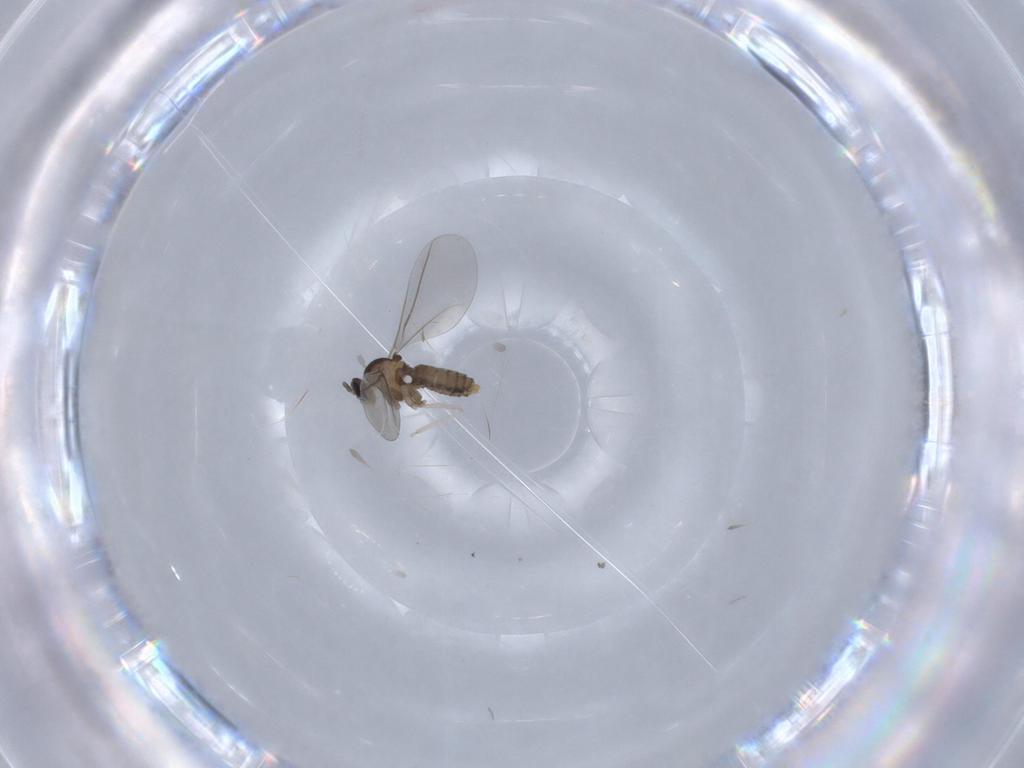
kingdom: Animalia
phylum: Arthropoda
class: Insecta
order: Diptera
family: Cecidomyiidae
